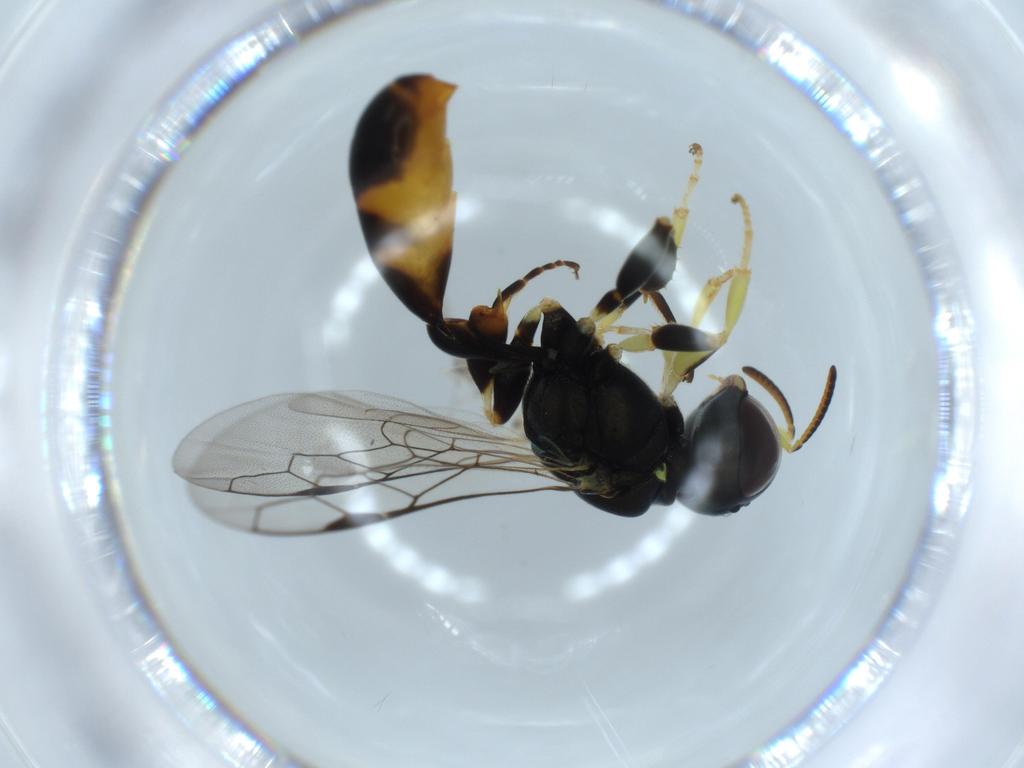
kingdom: Animalia
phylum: Arthropoda
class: Insecta
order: Hymenoptera
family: Crabronidae
